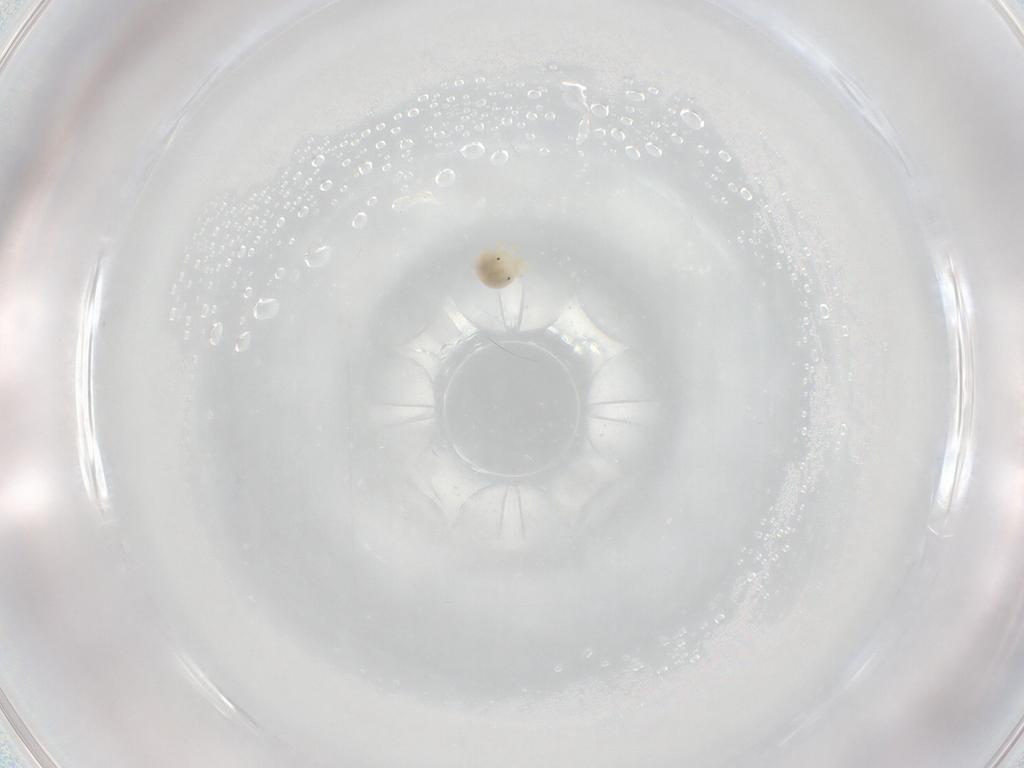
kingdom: Animalia
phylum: Arthropoda
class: Arachnida
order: Trombidiformes
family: Sperchontidae
